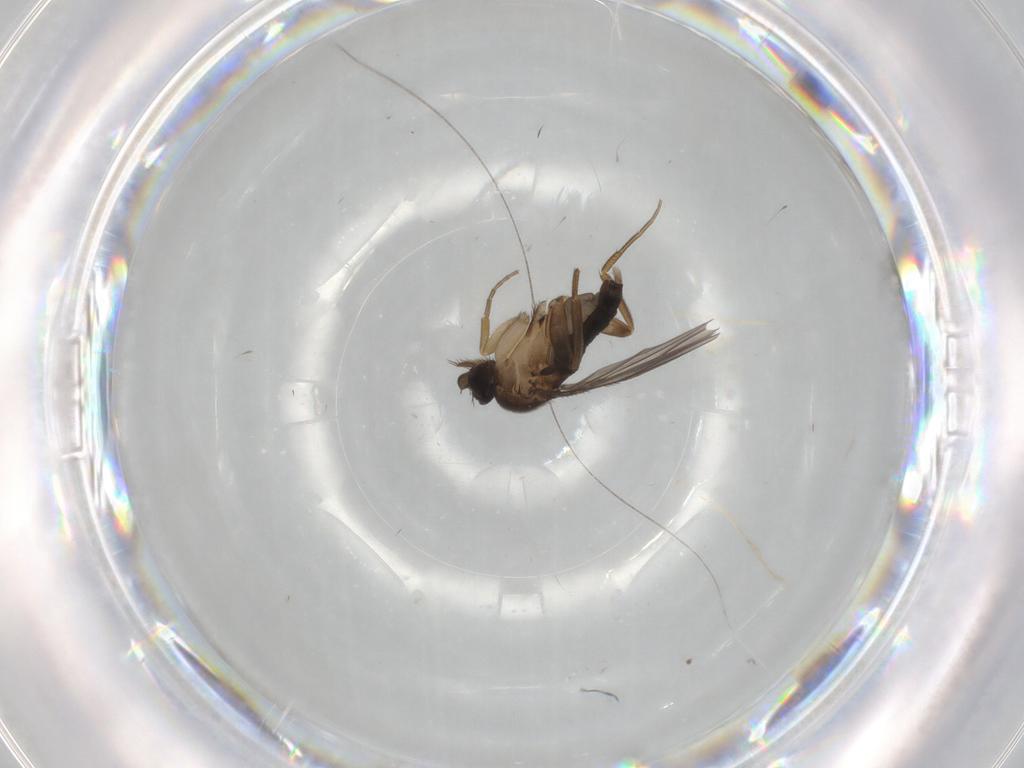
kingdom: Animalia
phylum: Arthropoda
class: Insecta
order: Diptera
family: Phoridae
